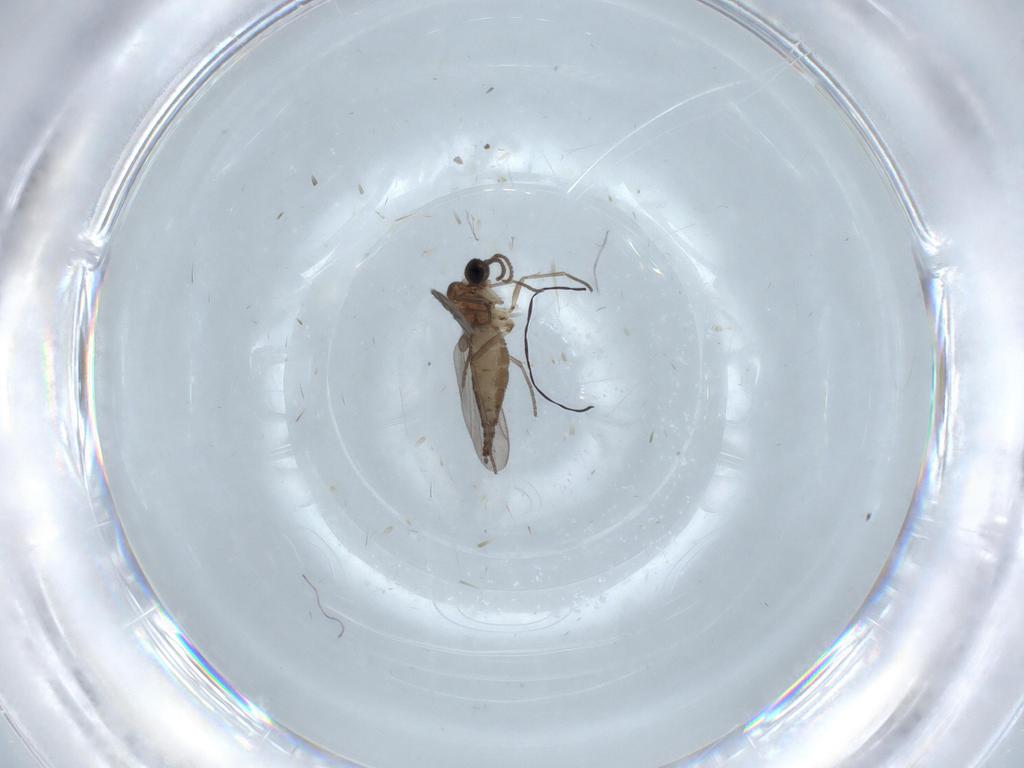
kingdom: Animalia
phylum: Arthropoda
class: Insecta
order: Diptera
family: Sciaridae
